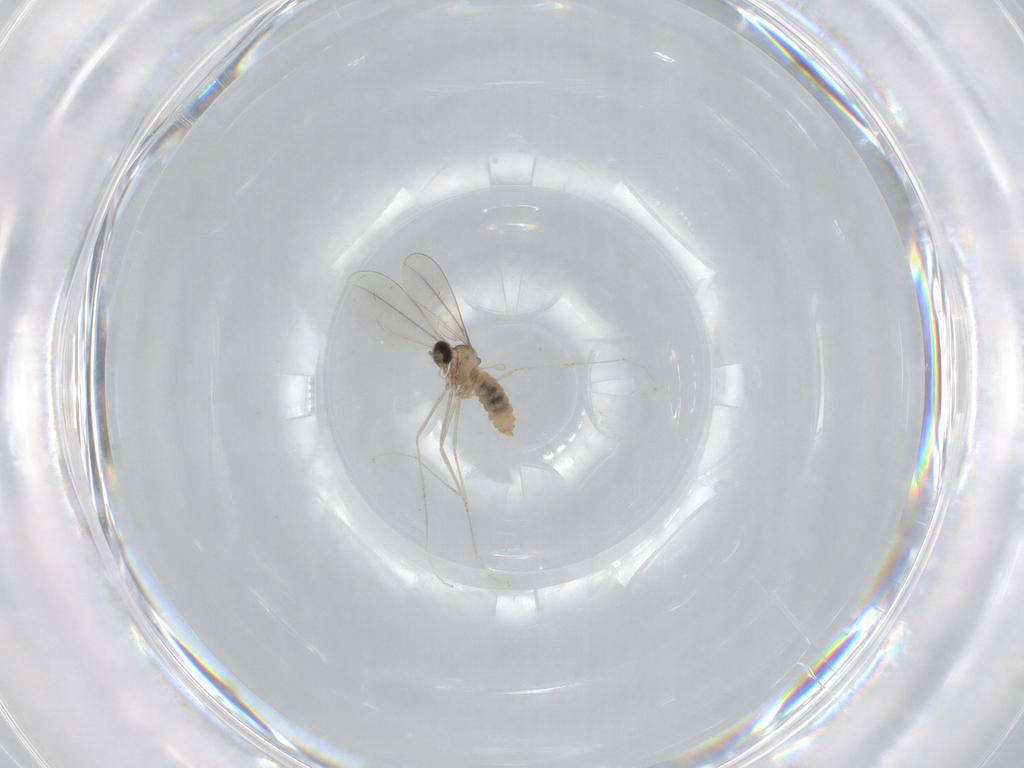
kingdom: Animalia
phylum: Arthropoda
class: Insecta
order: Diptera
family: Cecidomyiidae
